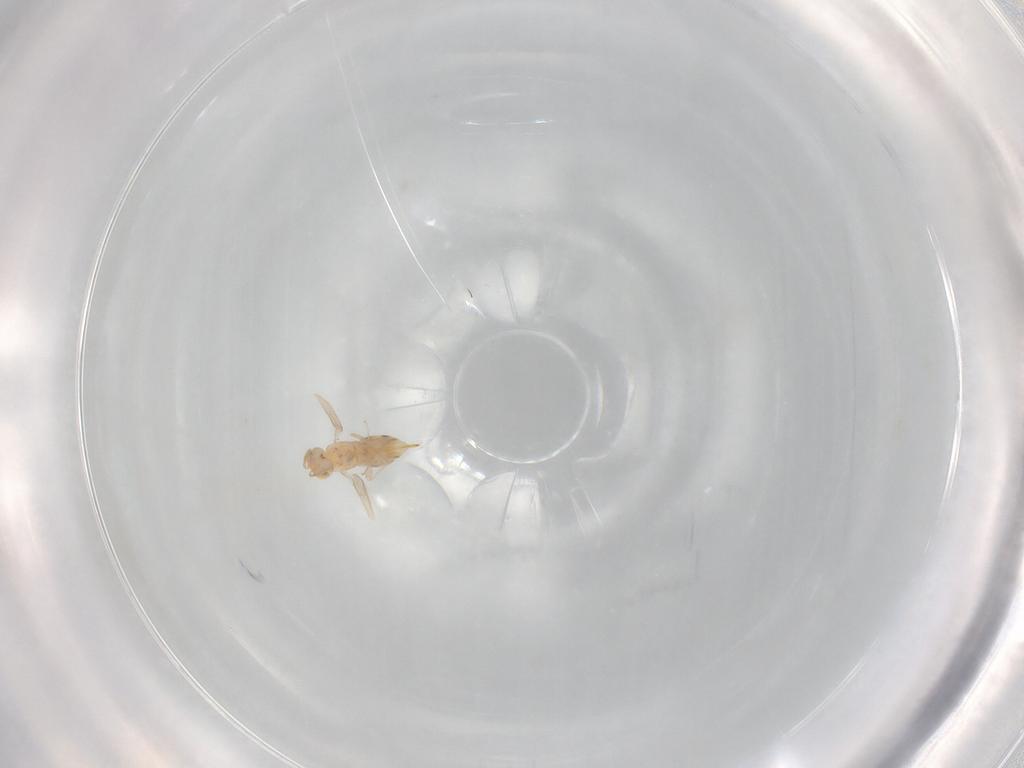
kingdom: Animalia
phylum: Arthropoda
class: Insecta
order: Hymenoptera
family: Aphelinidae
